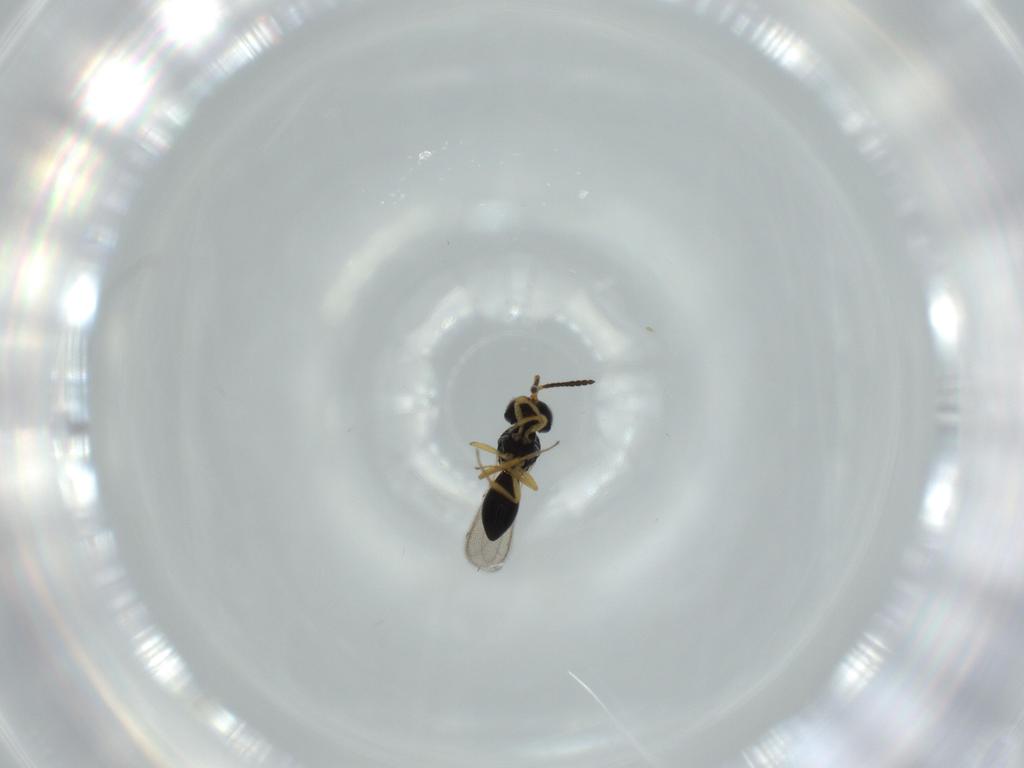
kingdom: Animalia
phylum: Arthropoda
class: Insecta
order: Hymenoptera
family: Scelionidae
